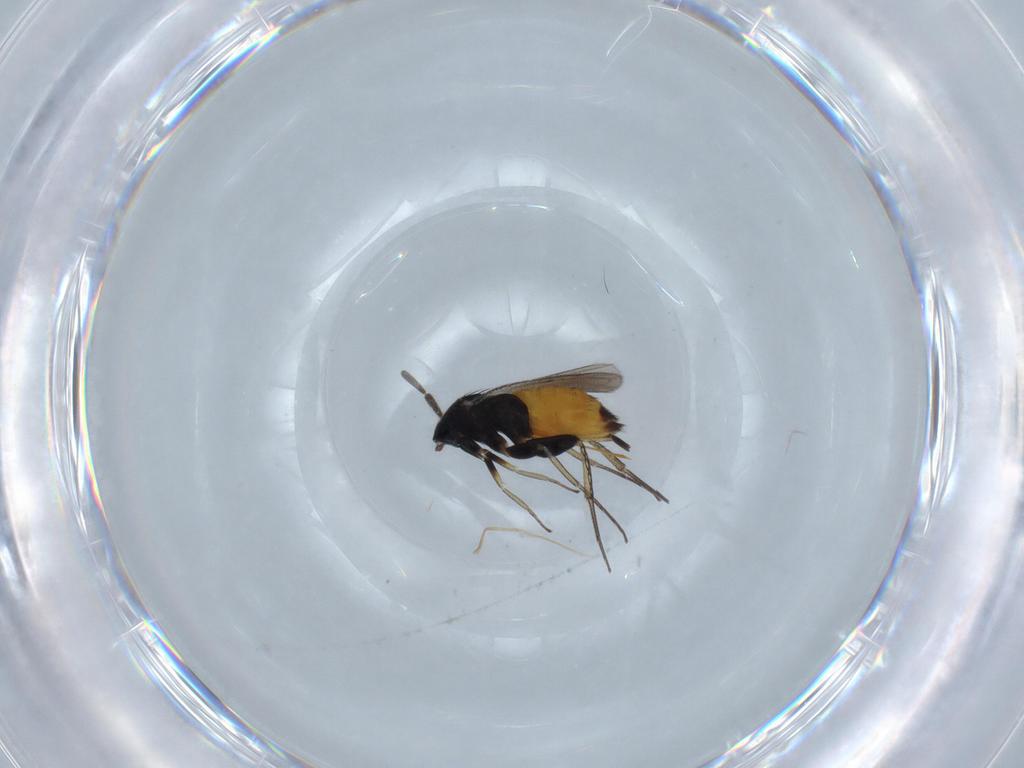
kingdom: Animalia
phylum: Arthropoda
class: Insecta
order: Hymenoptera
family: Eulophidae
